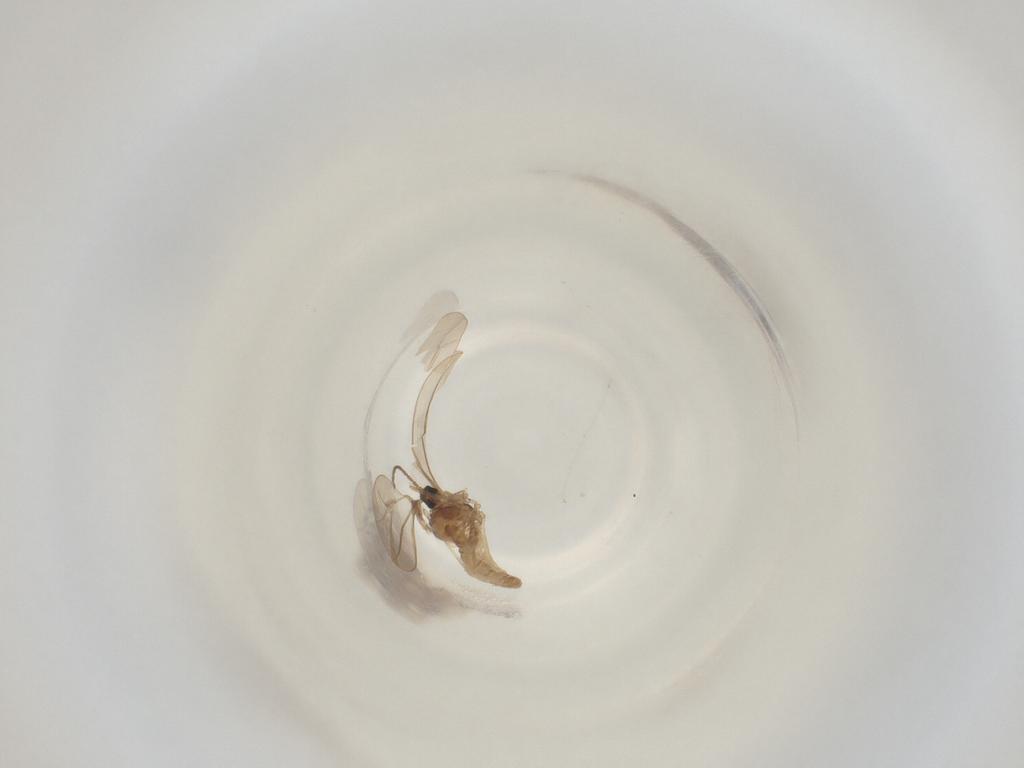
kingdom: Animalia
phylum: Arthropoda
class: Insecta
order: Diptera
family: Cecidomyiidae
